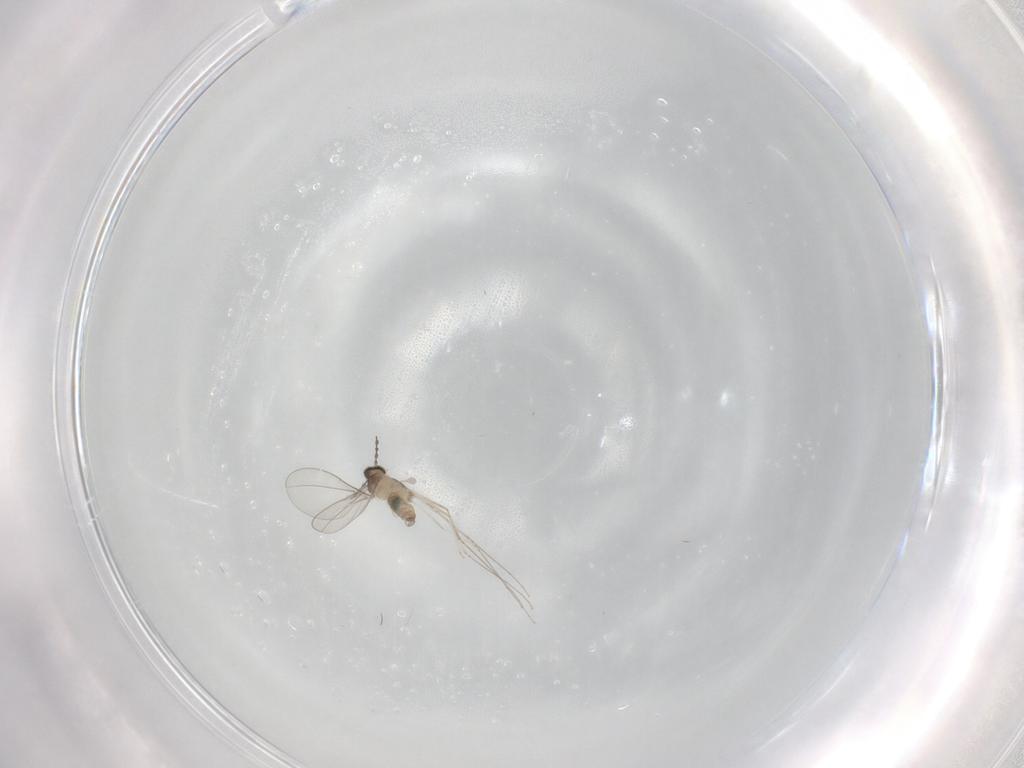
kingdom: Animalia
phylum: Arthropoda
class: Insecta
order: Diptera
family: Cecidomyiidae
